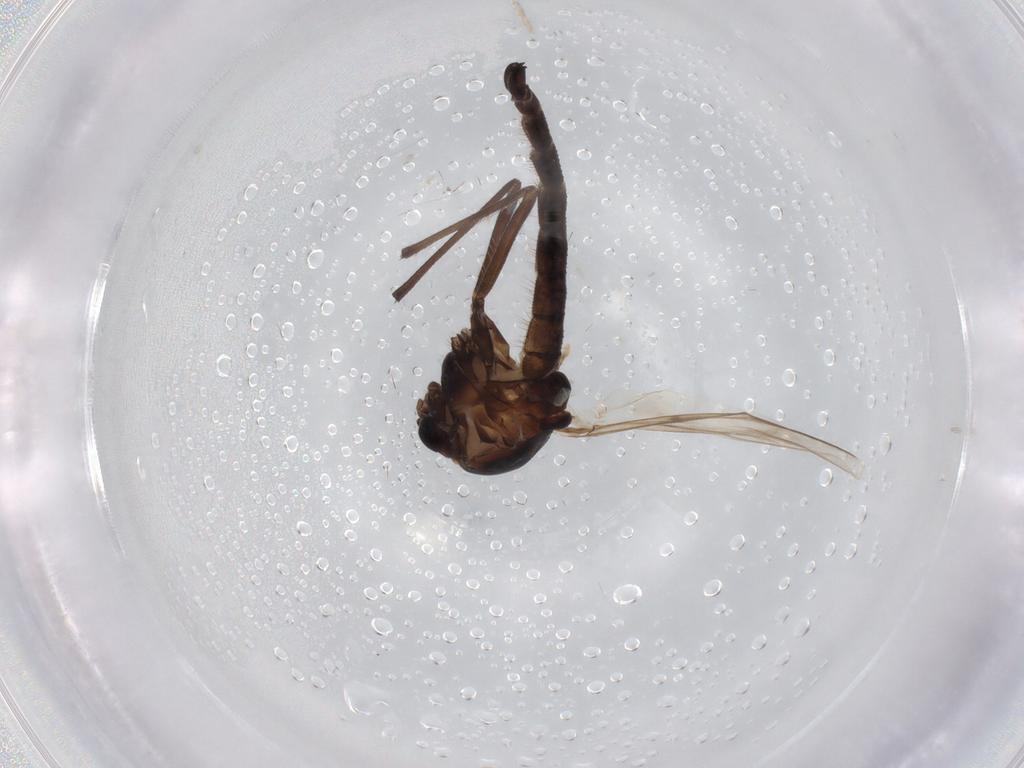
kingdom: Animalia
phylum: Arthropoda
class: Insecta
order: Diptera
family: Chironomidae
